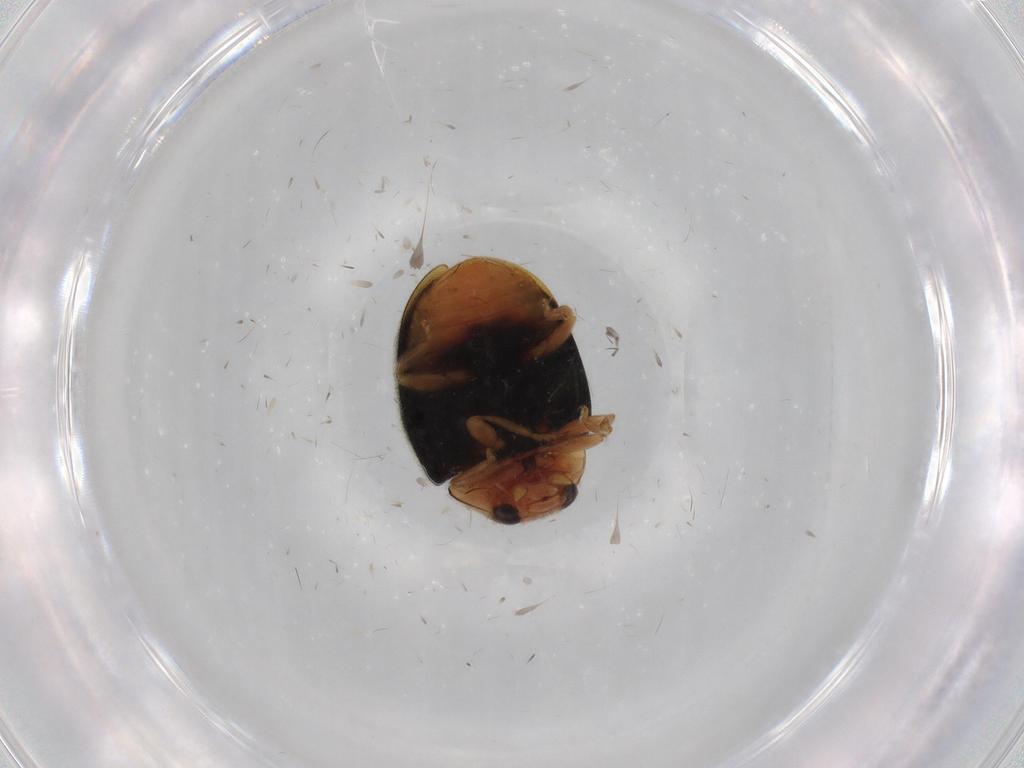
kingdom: Animalia
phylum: Arthropoda
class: Insecta
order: Coleoptera
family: Coccinellidae
